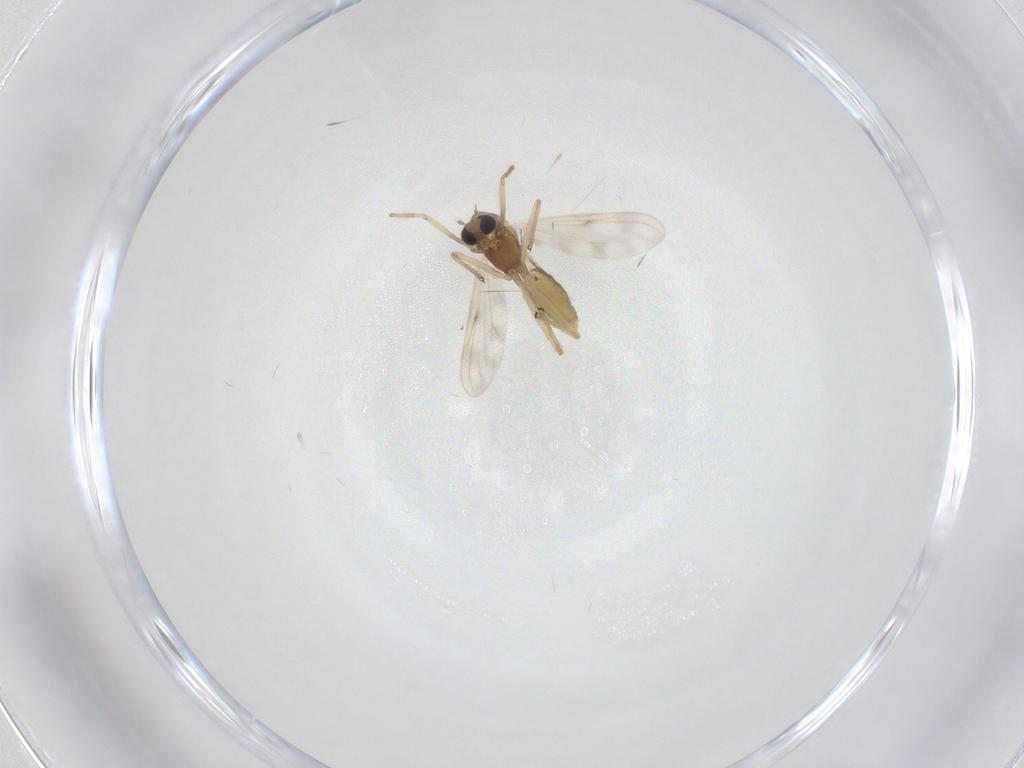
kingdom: Animalia
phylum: Arthropoda
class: Insecta
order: Diptera
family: Chironomidae
